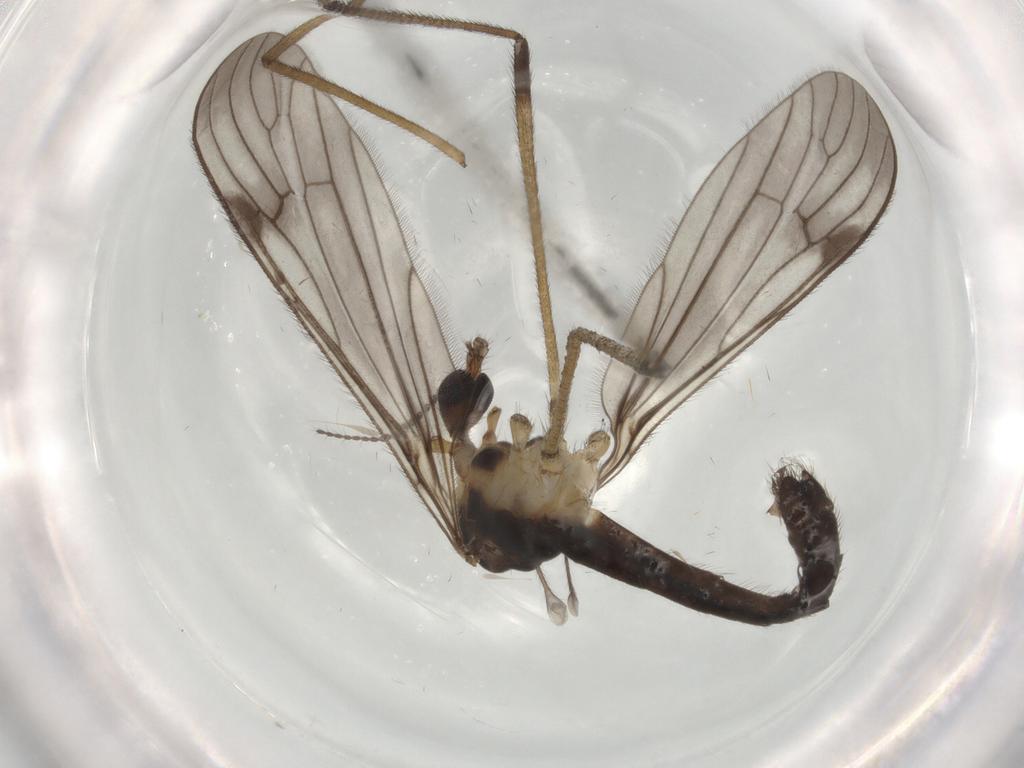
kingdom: Animalia
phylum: Arthropoda
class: Insecta
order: Diptera
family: Limoniidae
